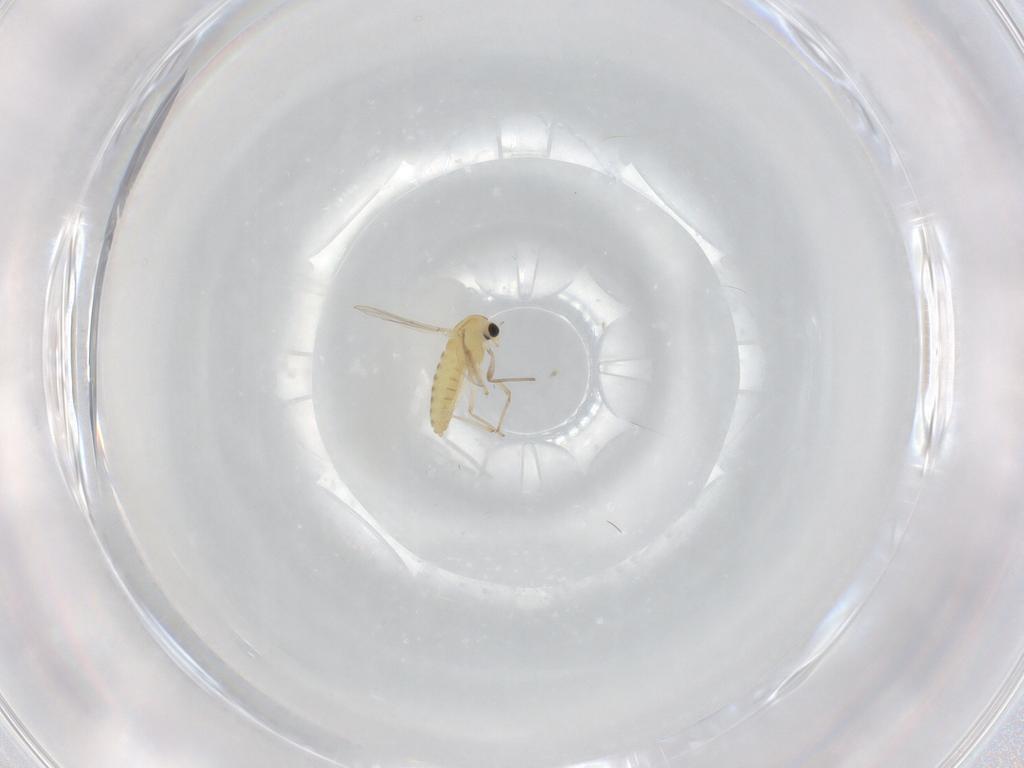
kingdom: Animalia
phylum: Arthropoda
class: Insecta
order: Diptera
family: Chironomidae
